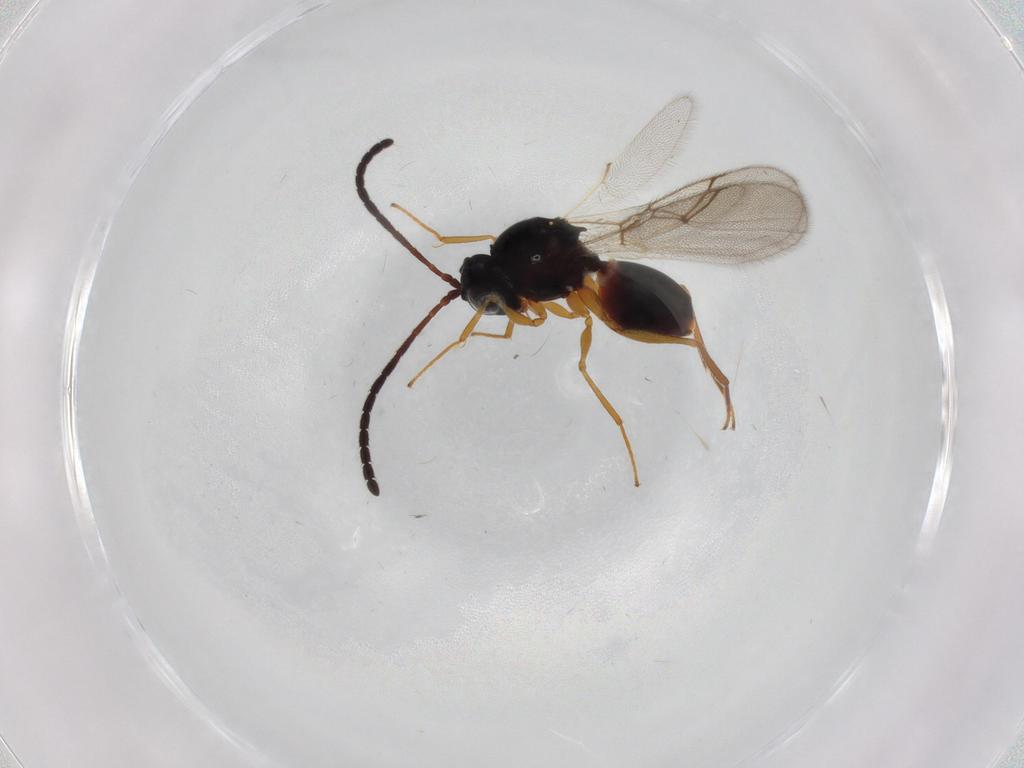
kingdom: Animalia
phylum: Arthropoda
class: Insecta
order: Hymenoptera
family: Figitidae
